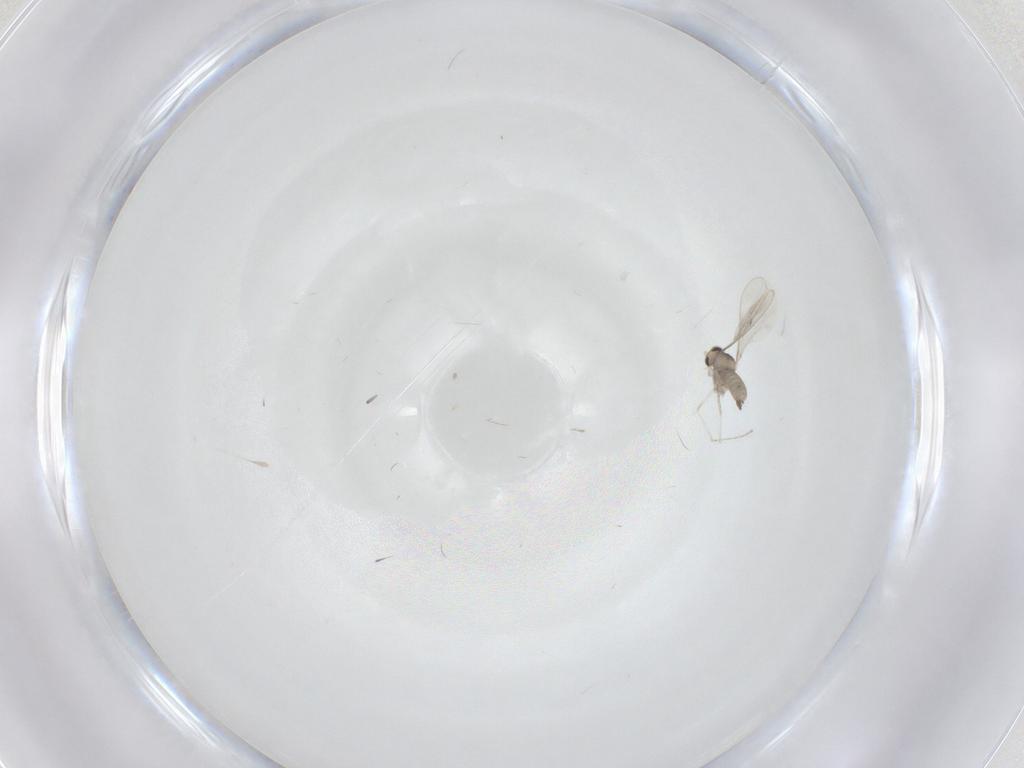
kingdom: Animalia
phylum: Arthropoda
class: Insecta
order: Diptera
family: Cecidomyiidae
